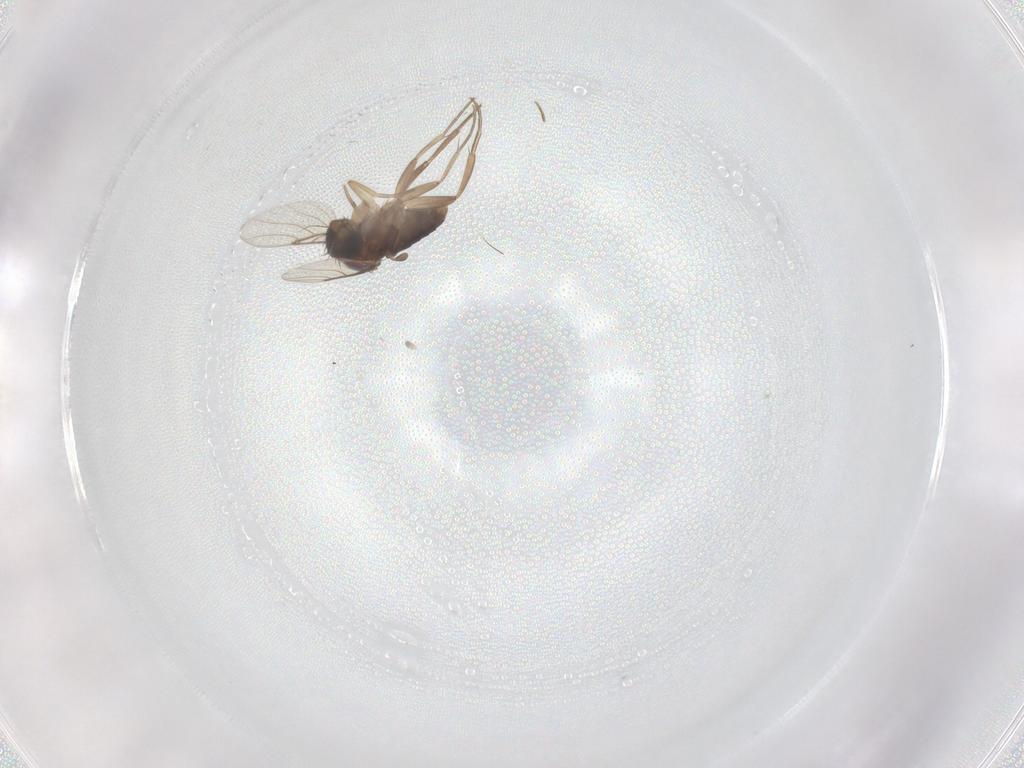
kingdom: Animalia
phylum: Arthropoda
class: Insecta
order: Diptera
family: Phoridae
